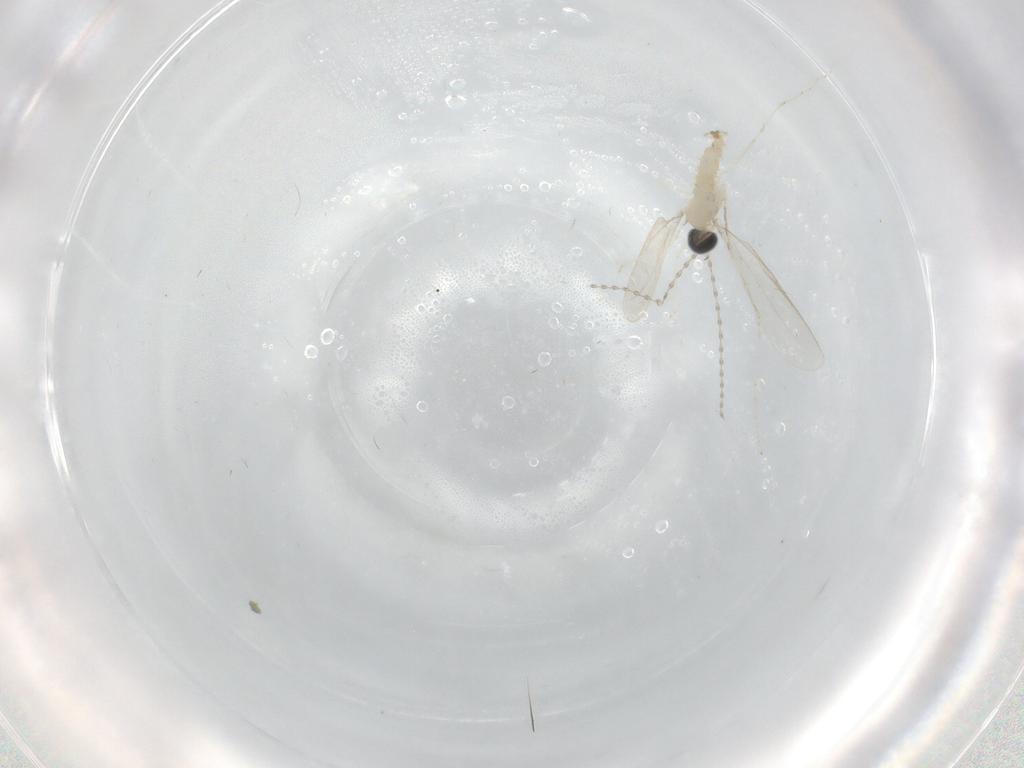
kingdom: Animalia
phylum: Arthropoda
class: Insecta
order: Diptera
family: Cecidomyiidae
